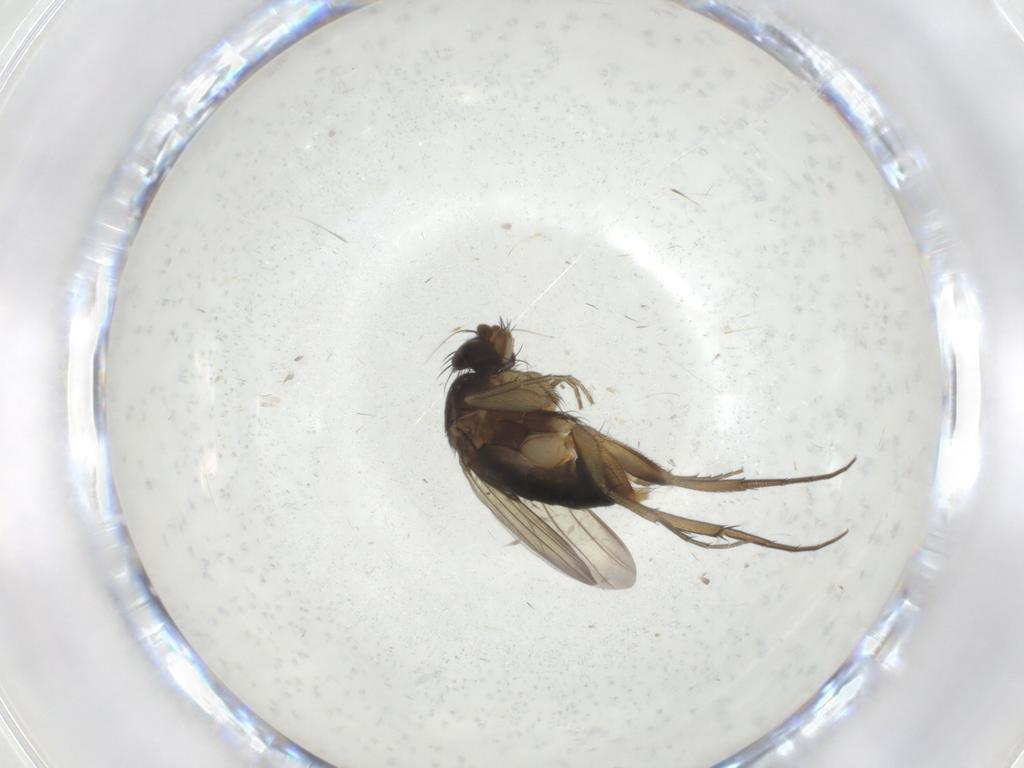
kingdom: Animalia
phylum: Arthropoda
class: Insecta
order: Diptera
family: Phoridae
